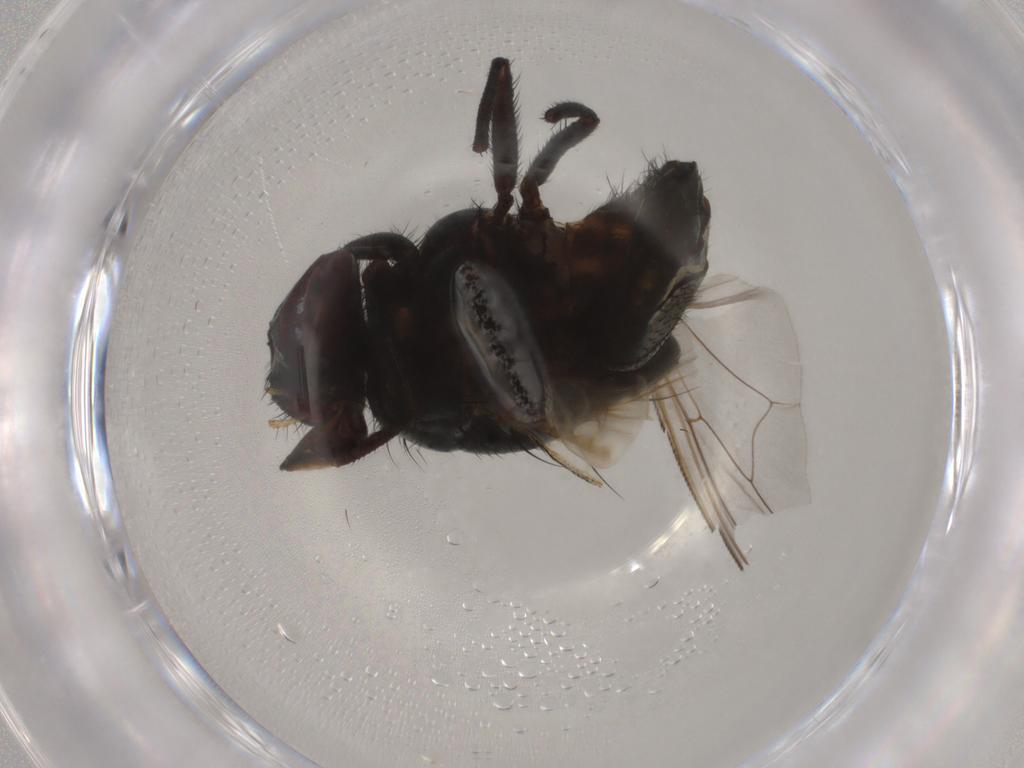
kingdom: Animalia
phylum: Arthropoda
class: Insecta
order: Diptera
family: Muscidae
